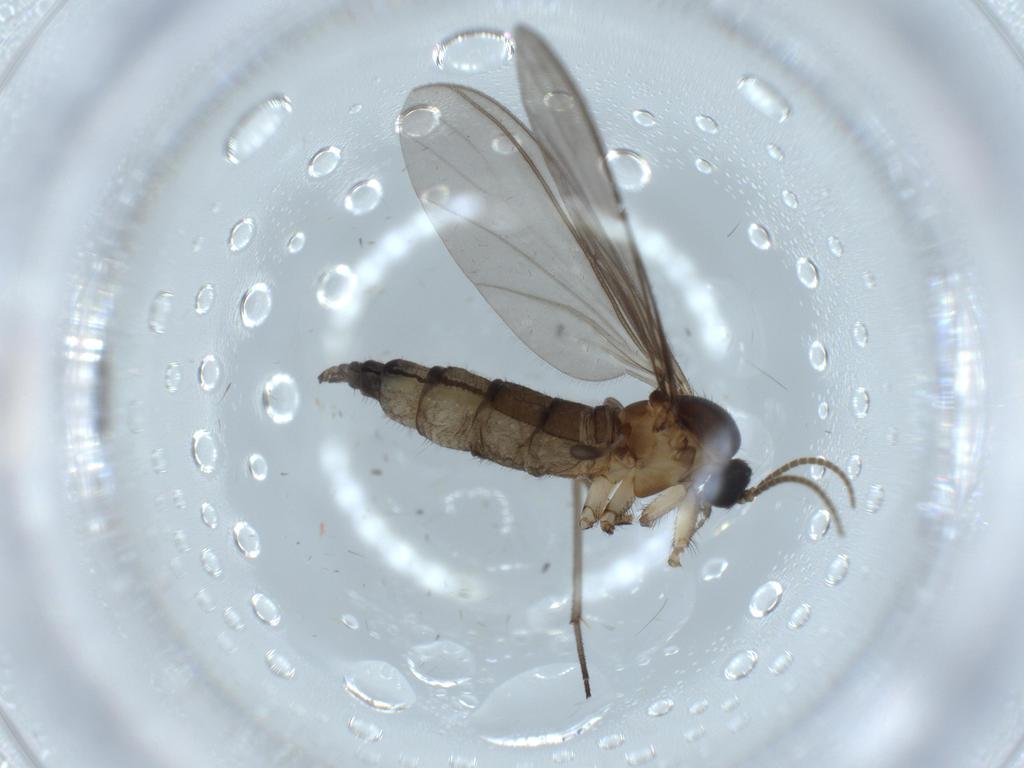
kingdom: Animalia
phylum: Arthropoda
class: Insecta
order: Diptera
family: Sciaridae
